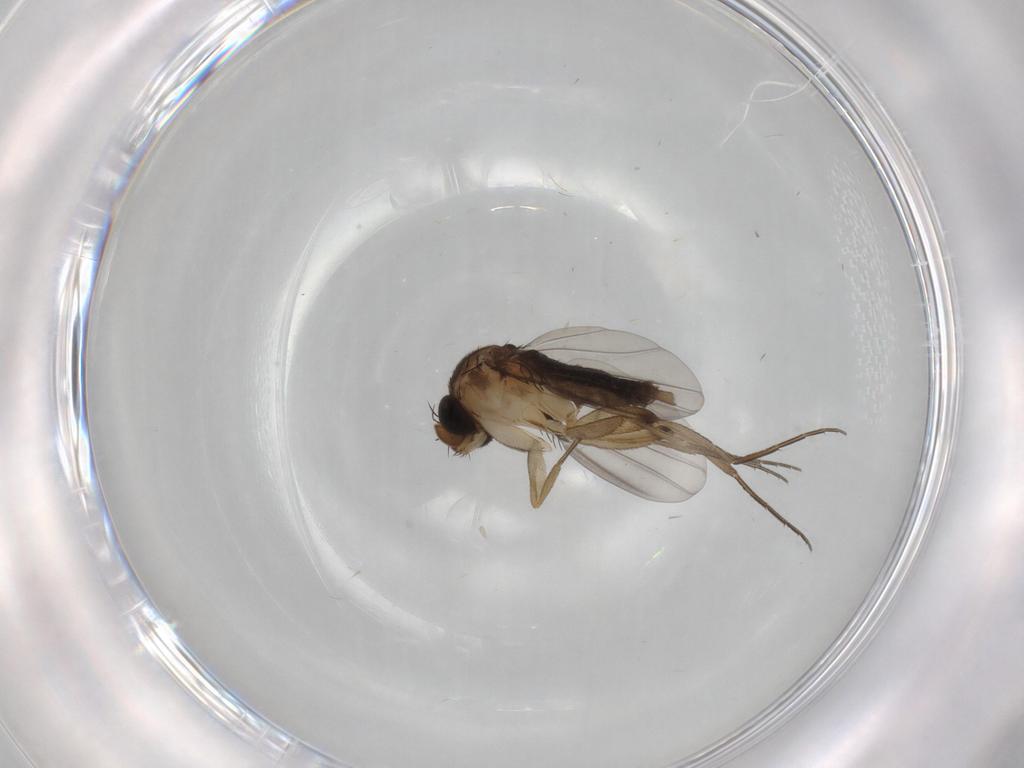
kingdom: Animalia
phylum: Arthropoda
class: Insecta
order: Diptera
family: Phoridae
